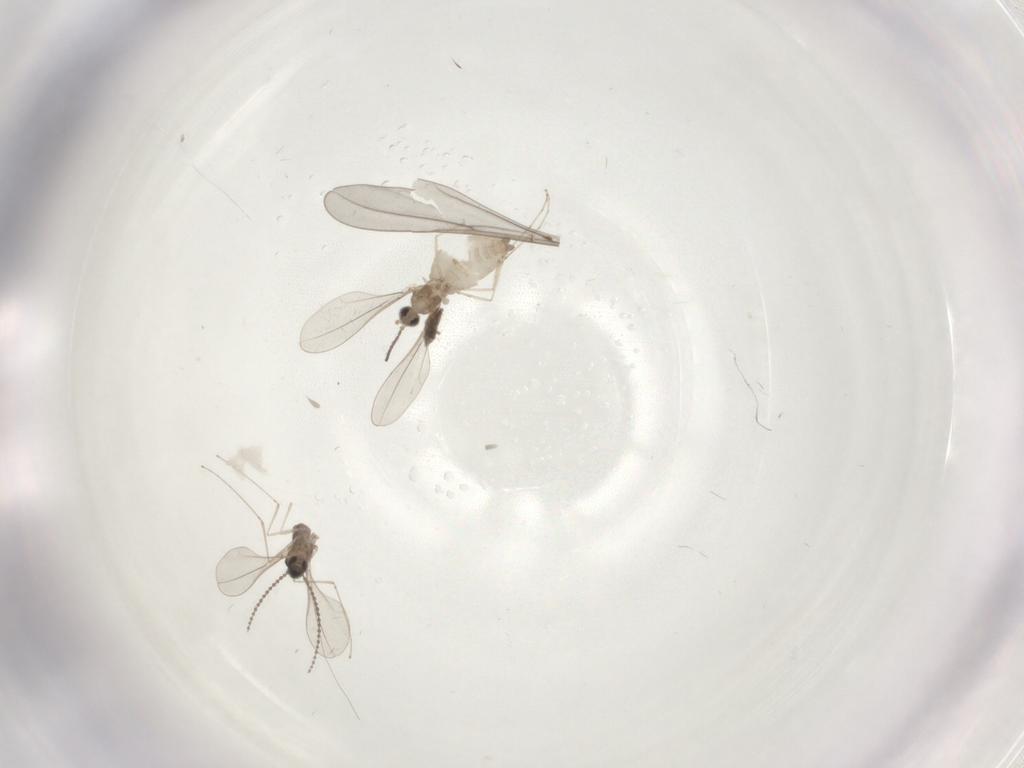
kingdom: Animalia
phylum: Arthropoda
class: Insecta
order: Diptera
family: Cecidomyiidae
